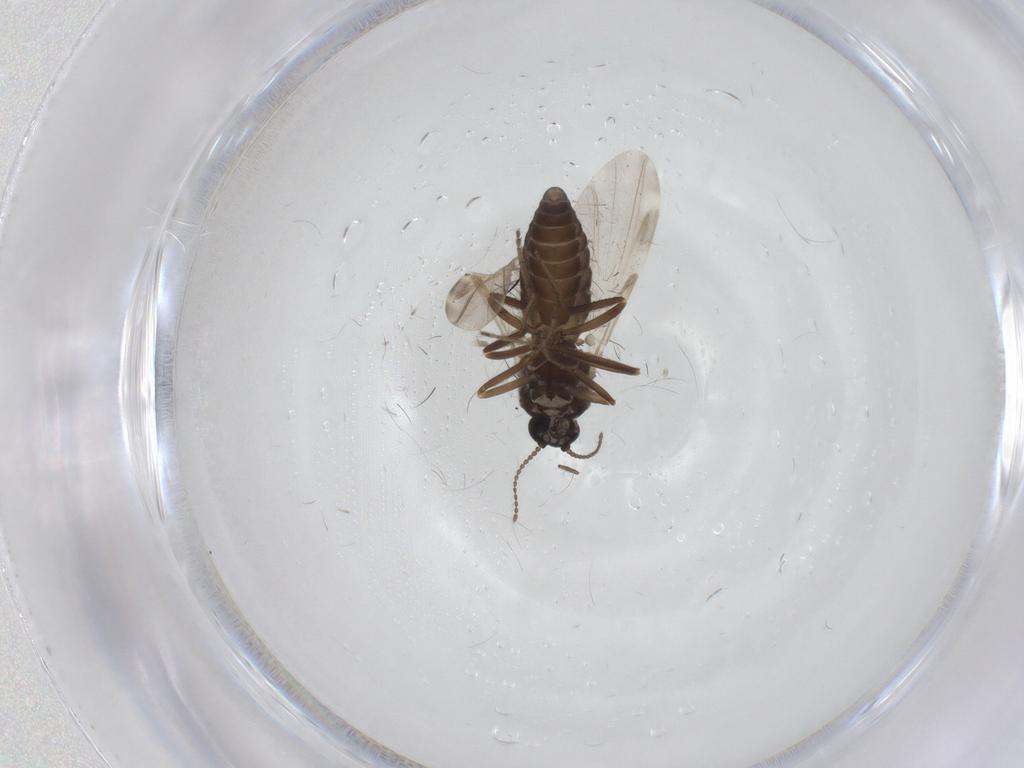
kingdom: Animalia
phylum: Arthropoda
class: Insecta
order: Diptera
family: Ceratopogonidae
